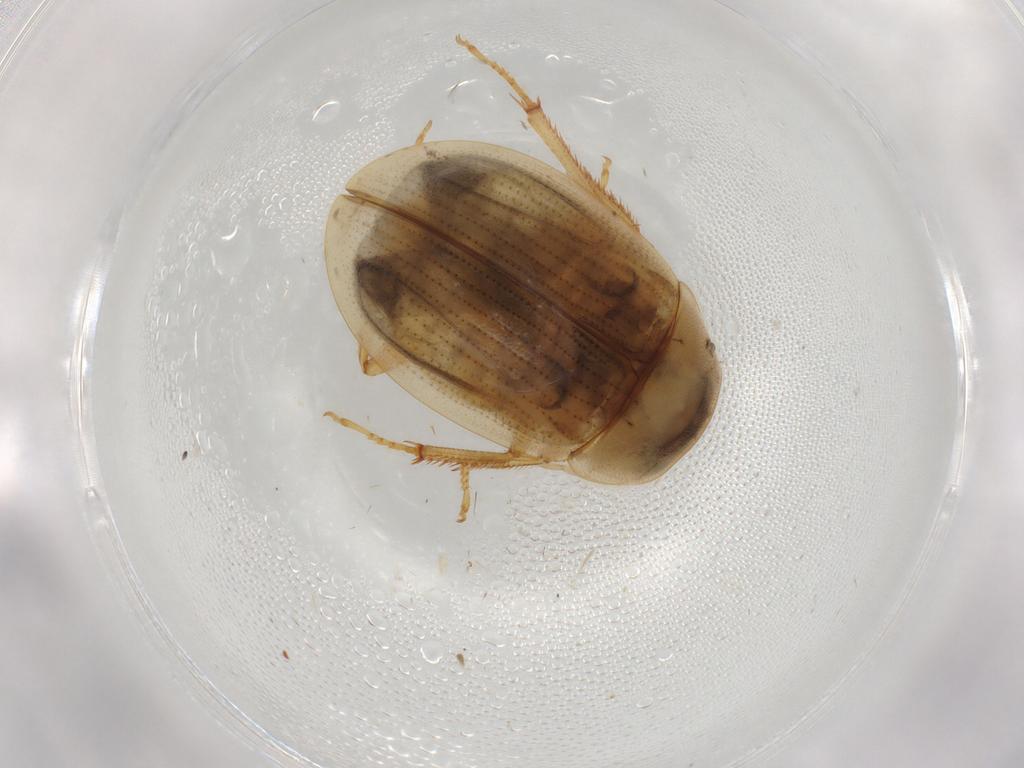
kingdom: Animalia
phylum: Arthropoda
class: Insecta
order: Coleoptera
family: Hydrophilidae
